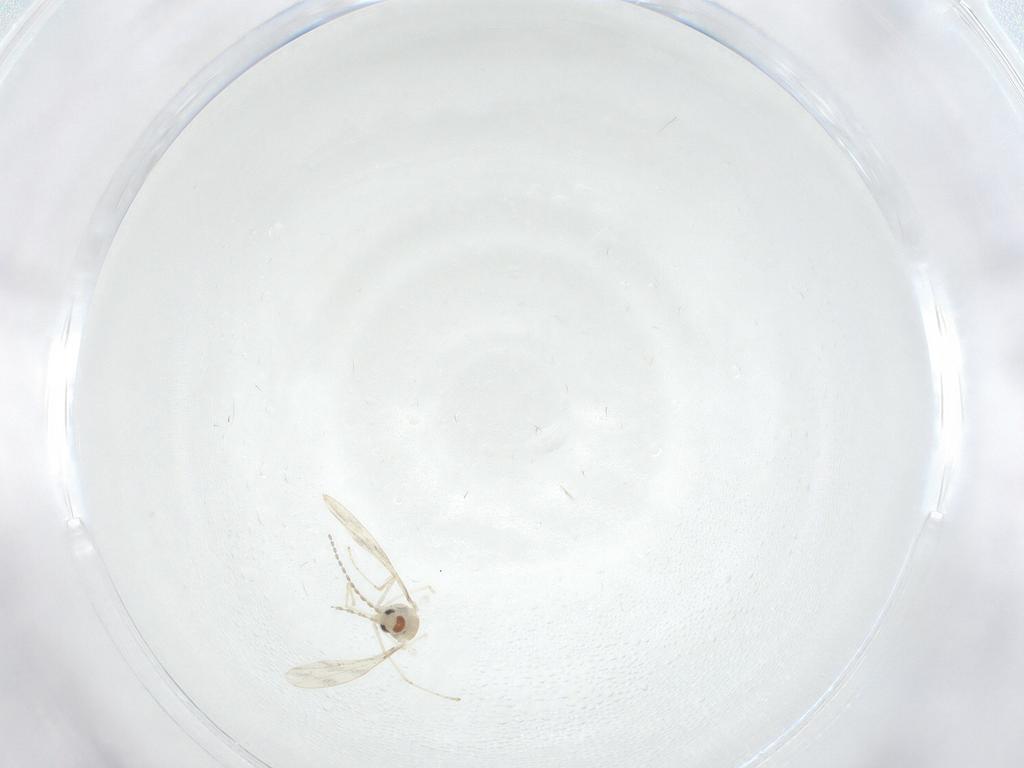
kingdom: Animalia
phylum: Arthropoda
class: Insecta
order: Diptera
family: Cecidomyiidae
